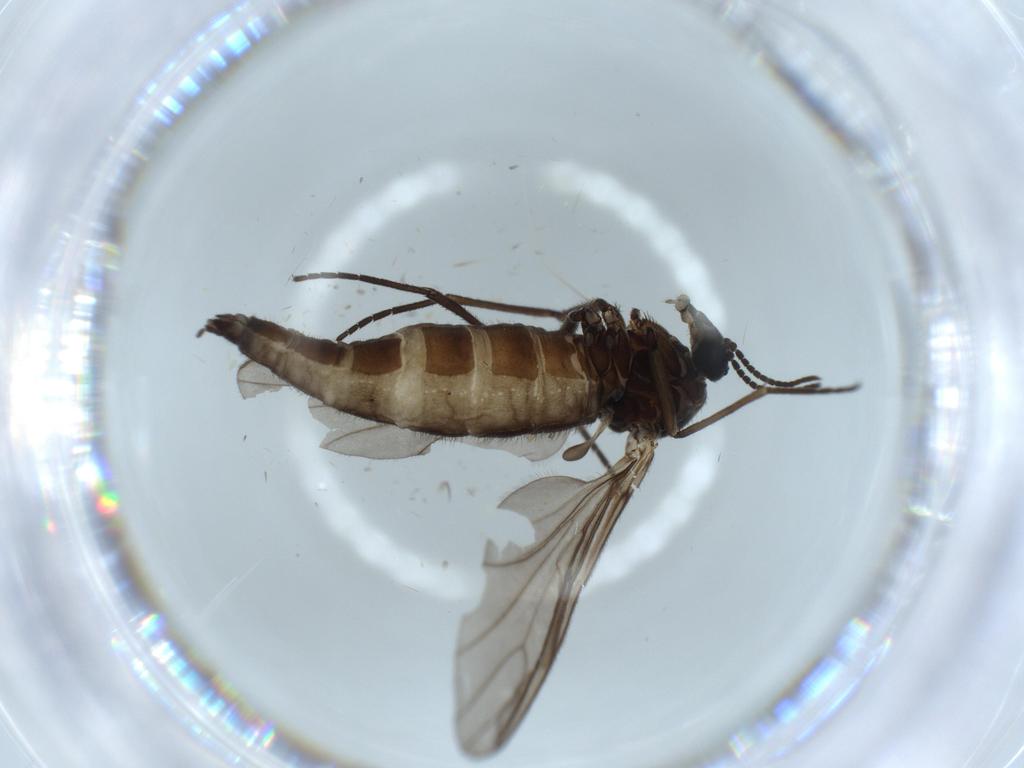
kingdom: Animalia
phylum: Arthropoda
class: Insecta
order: Diptera
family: Sciaridae
